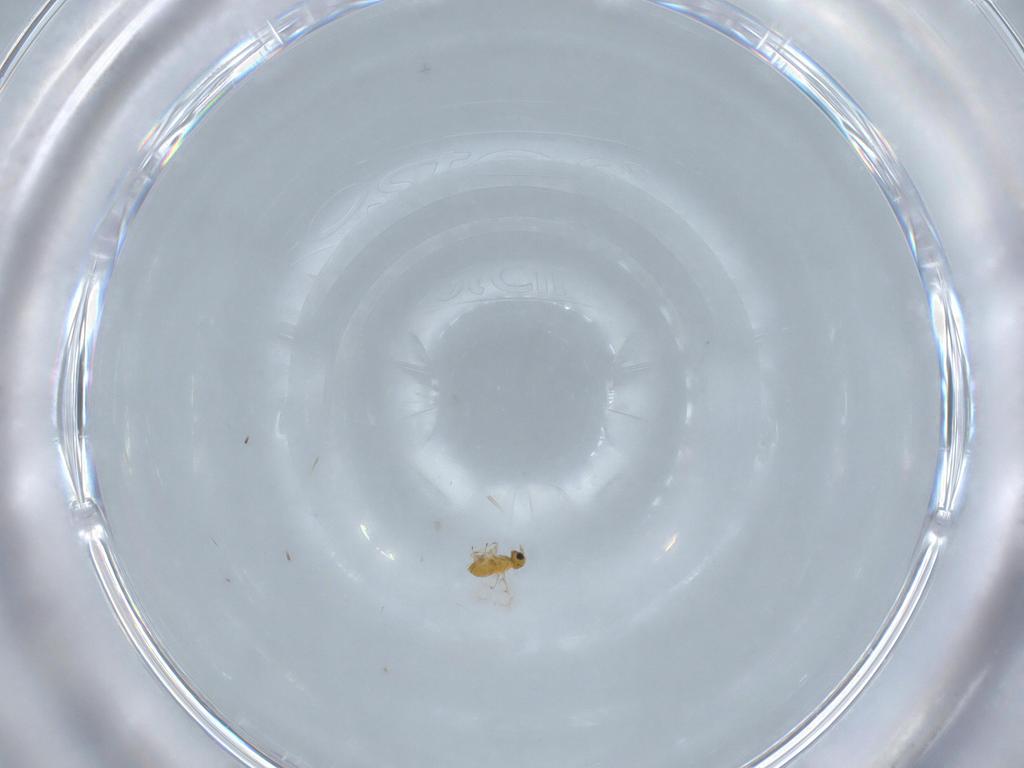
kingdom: Animalia
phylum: Arthropoda
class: Insecta
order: Hymenoptera
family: Trichogrammatidae
